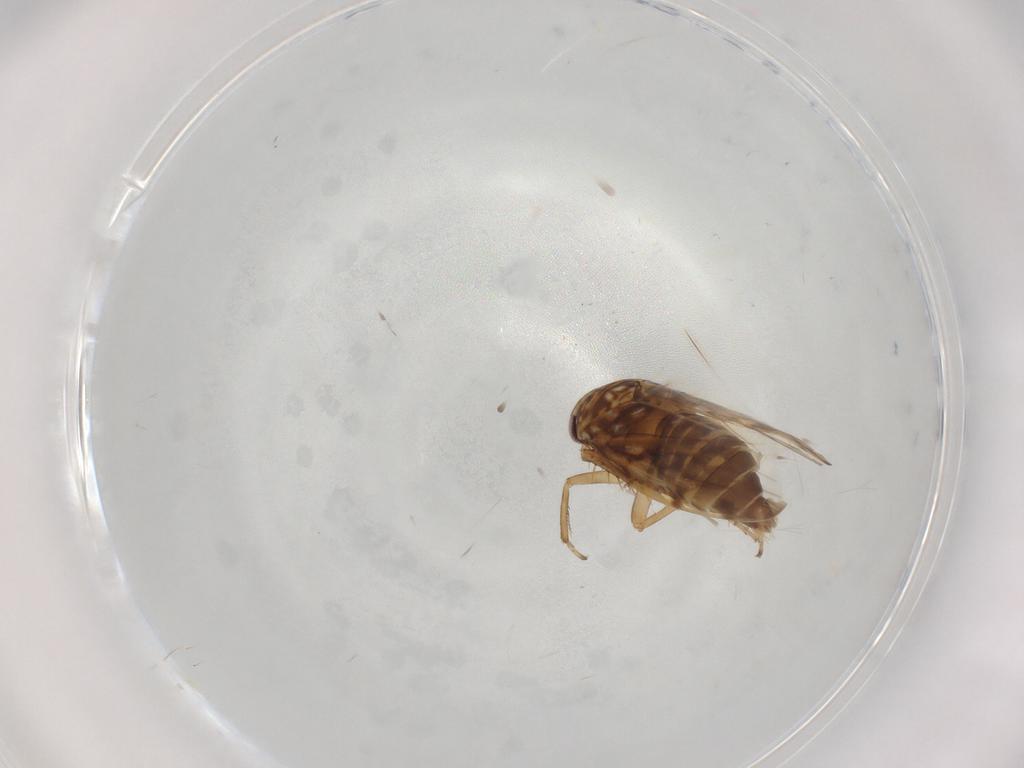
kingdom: Animalia
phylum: Arthropoda
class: Insecta
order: Hemiptera
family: Cicadellidae
